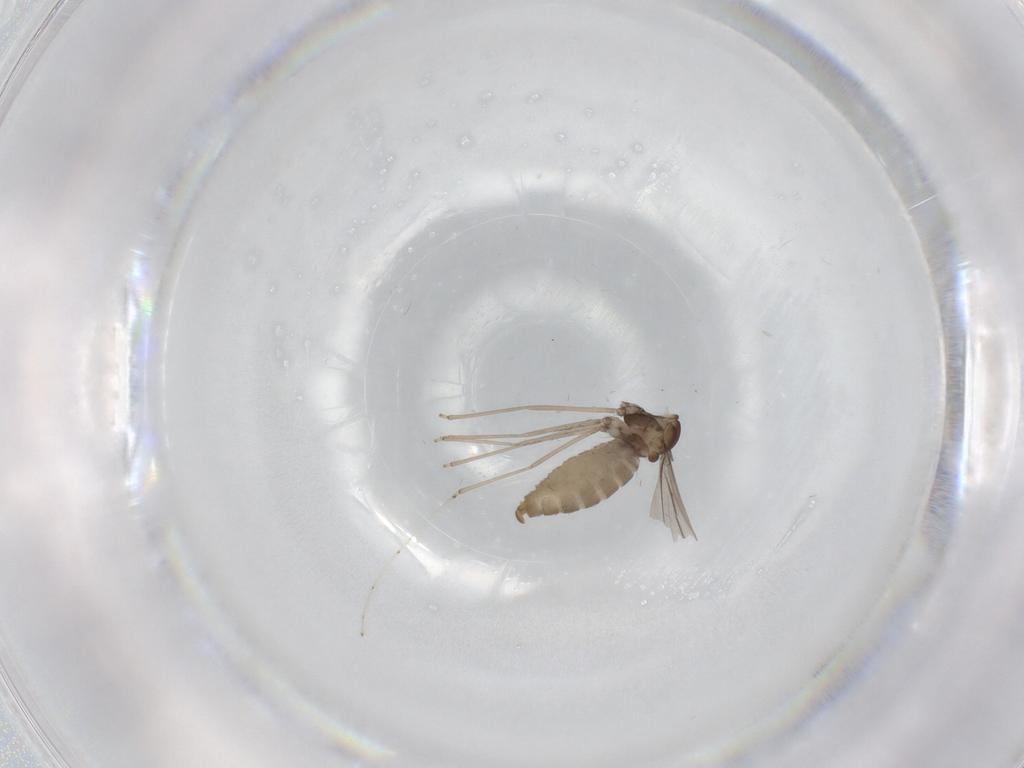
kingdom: Animalia
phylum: Arthropoda
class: Insecta
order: Diptera
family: Cecidomyiidae
